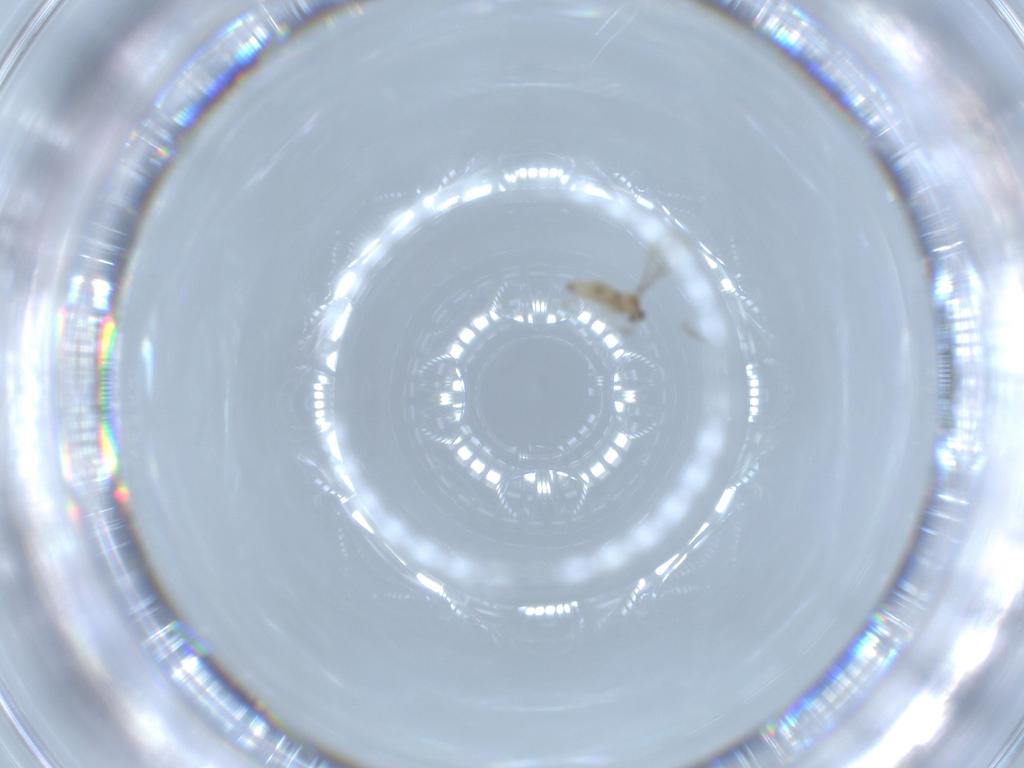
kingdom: Animalia
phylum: Arthropoda
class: Insecta
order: Diptera
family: Cecidomyiidae
